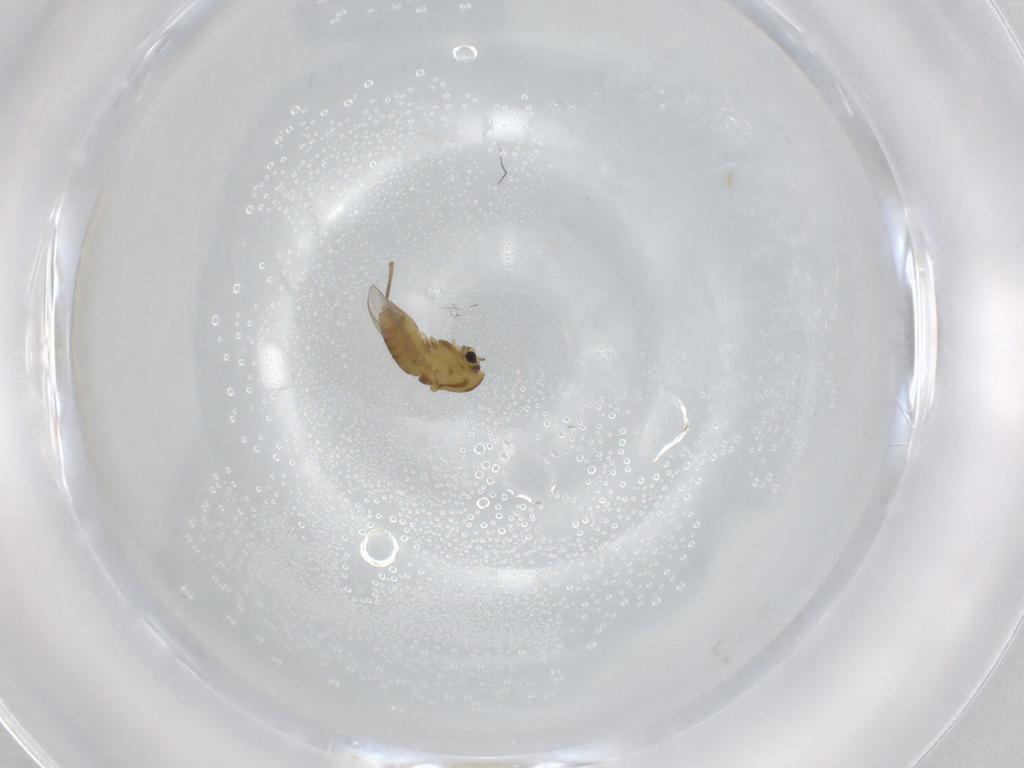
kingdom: Animalia
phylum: Arthropoda
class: Insecta
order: Diptera
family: Chironomidae
